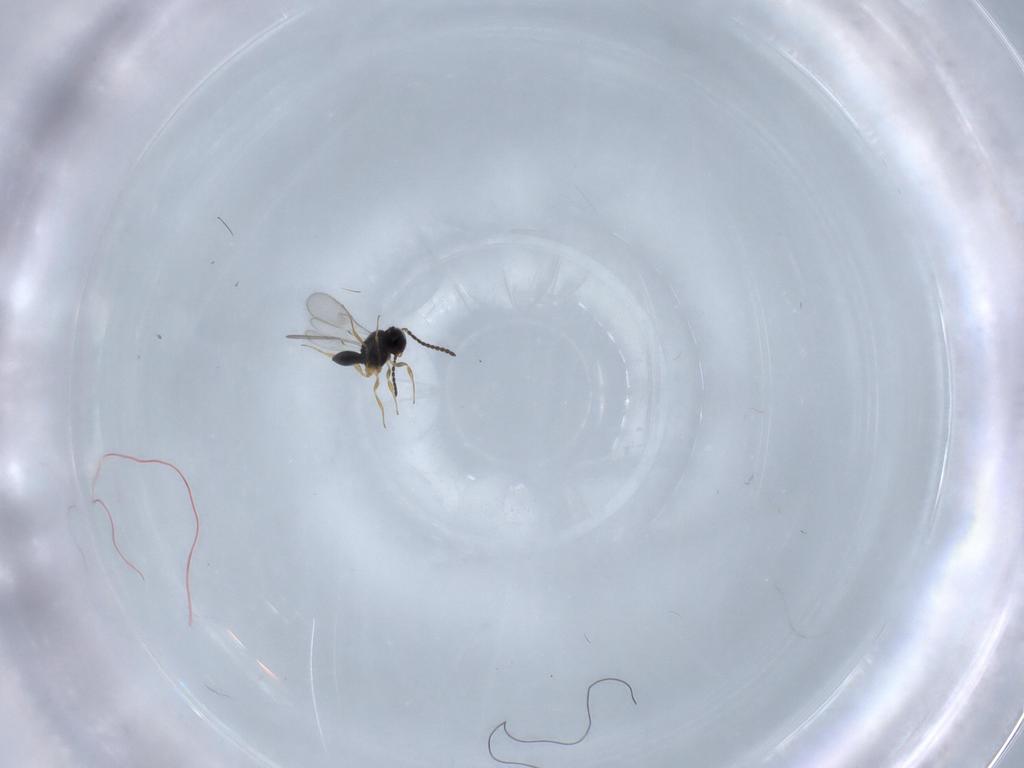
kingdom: Animalia
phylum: Arthropoda
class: Insecta
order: Hymenoptera
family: Scelionidae
